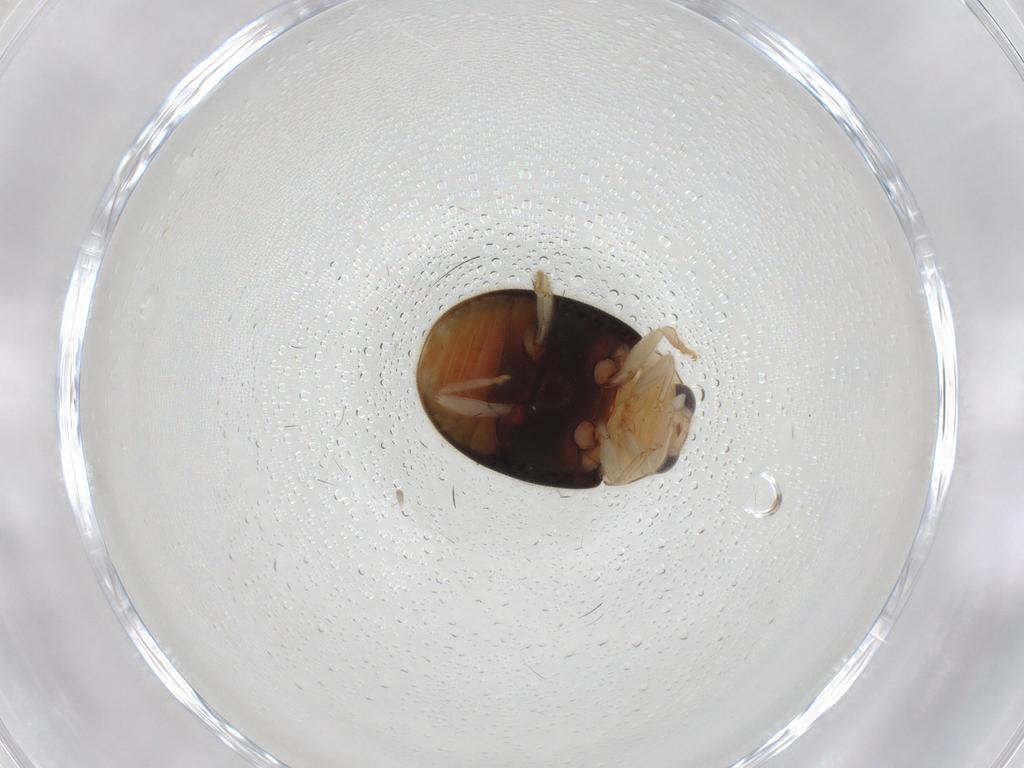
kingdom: Animalia
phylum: Arthropoda
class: Insecta
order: Coleoptera
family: Coccinellidae
